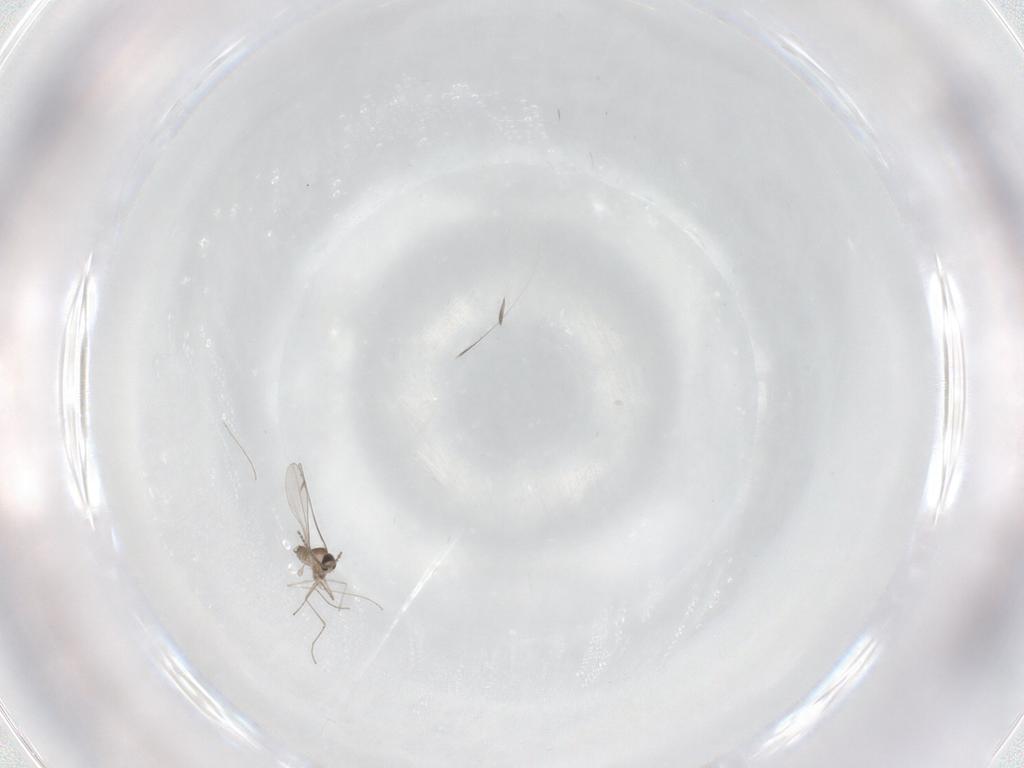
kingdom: Animalia
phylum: Arthropoda
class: Insecta
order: Diptera
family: Cecidomyiidae
